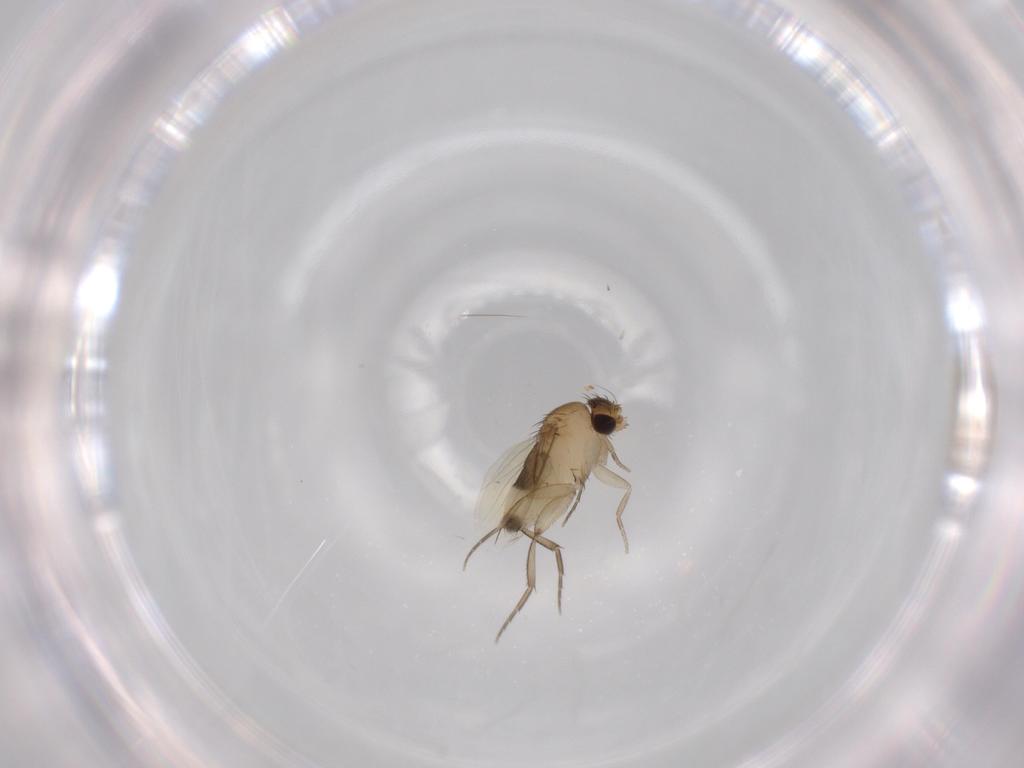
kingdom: Animalia
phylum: Arthropoda
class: Insecta
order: Diptera
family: Phoridae
